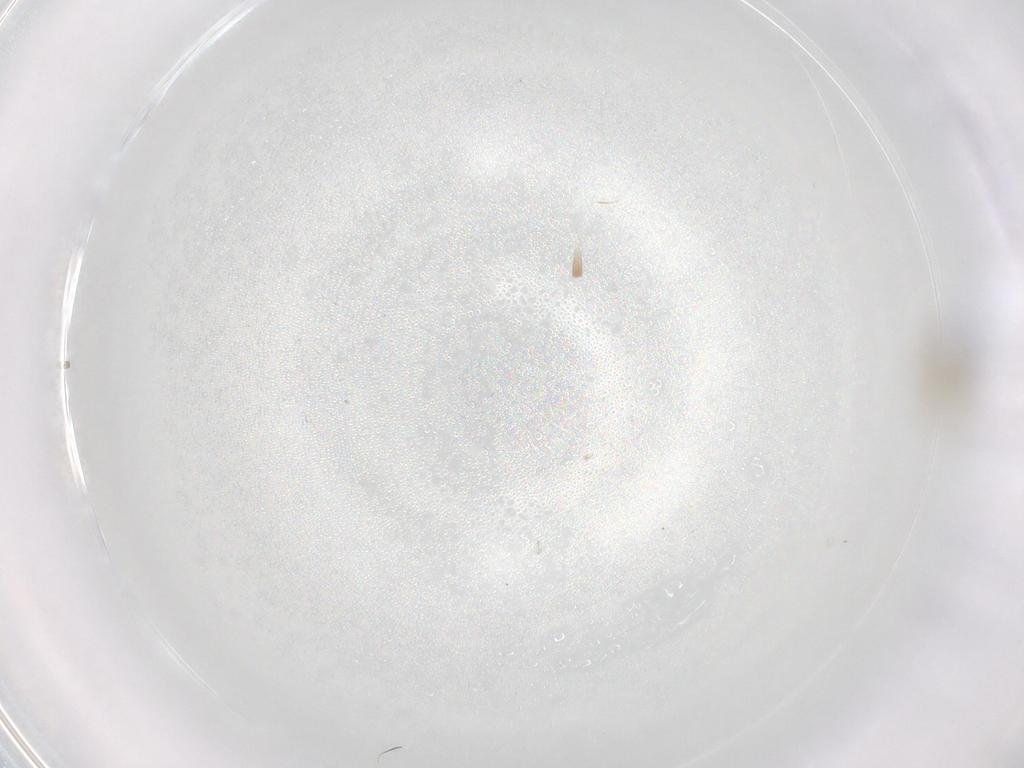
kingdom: Animalia
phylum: Arthropoda
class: Insecta
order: Diptera
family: Cecidomyiidae
